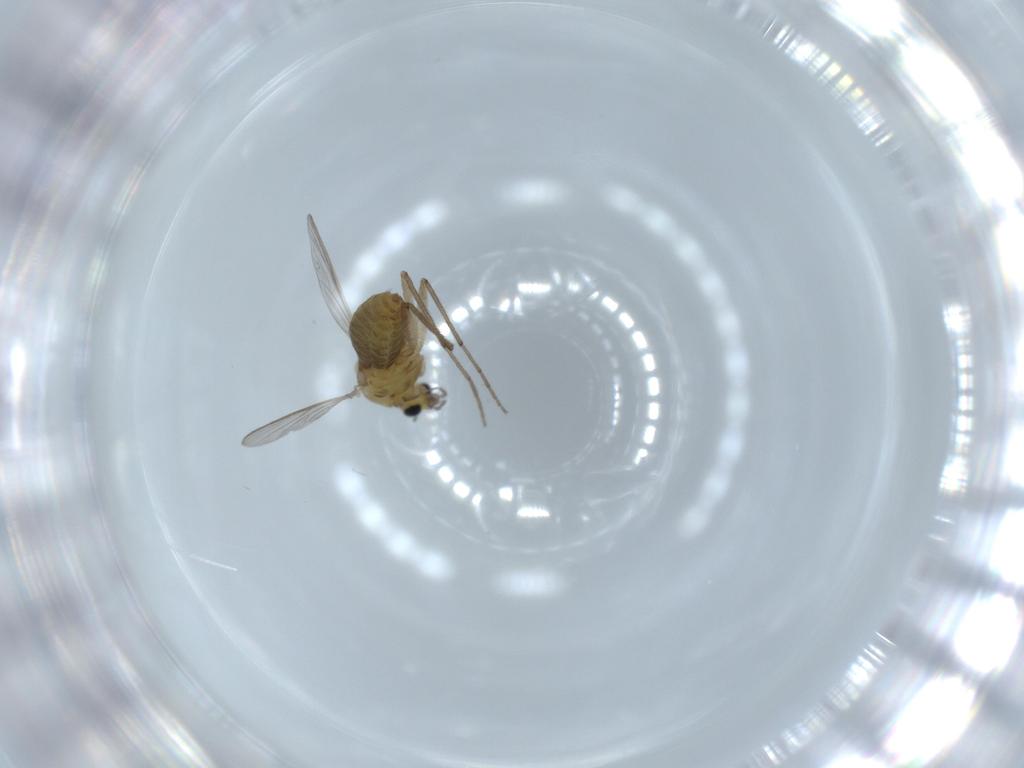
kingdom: Animalia
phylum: Arthropoda
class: Insecta
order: Diptera
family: Chironomidae
